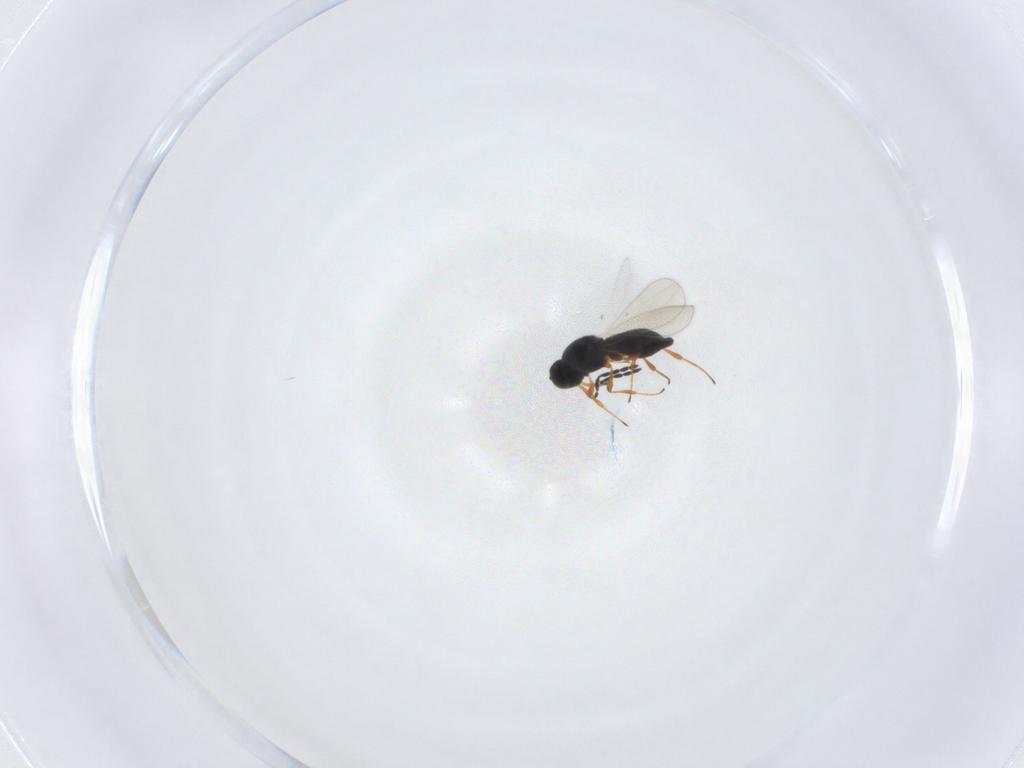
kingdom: Animalia
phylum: Arthropoda
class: Insecta
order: Hymenoptera
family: Platygastridae
